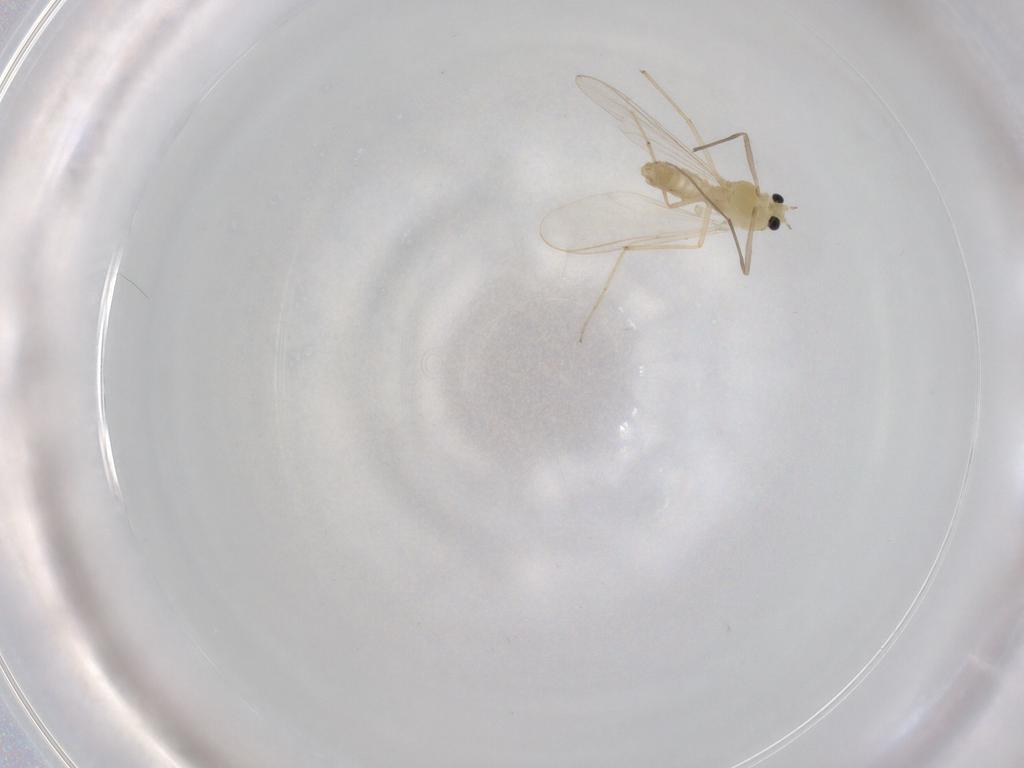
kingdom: Animalia
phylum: Arthropoda
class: Insecta
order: Diptera
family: Chironomidae
